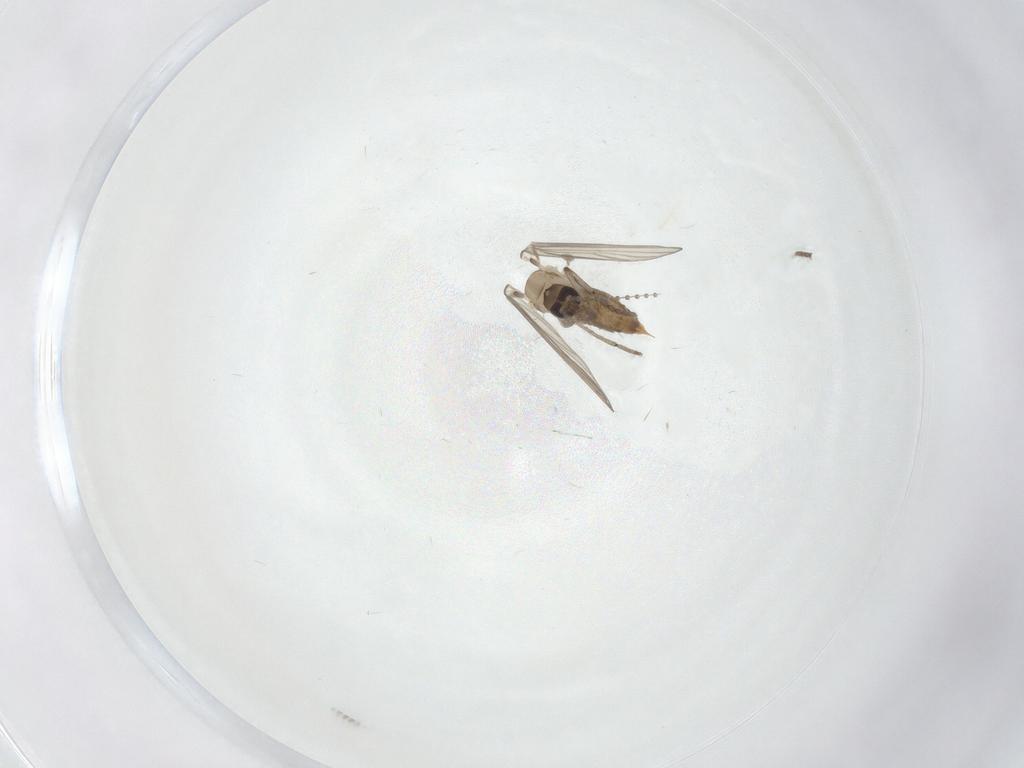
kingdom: Animalia
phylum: Arthropoda
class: Insecta
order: Diptera
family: Psychodidae
